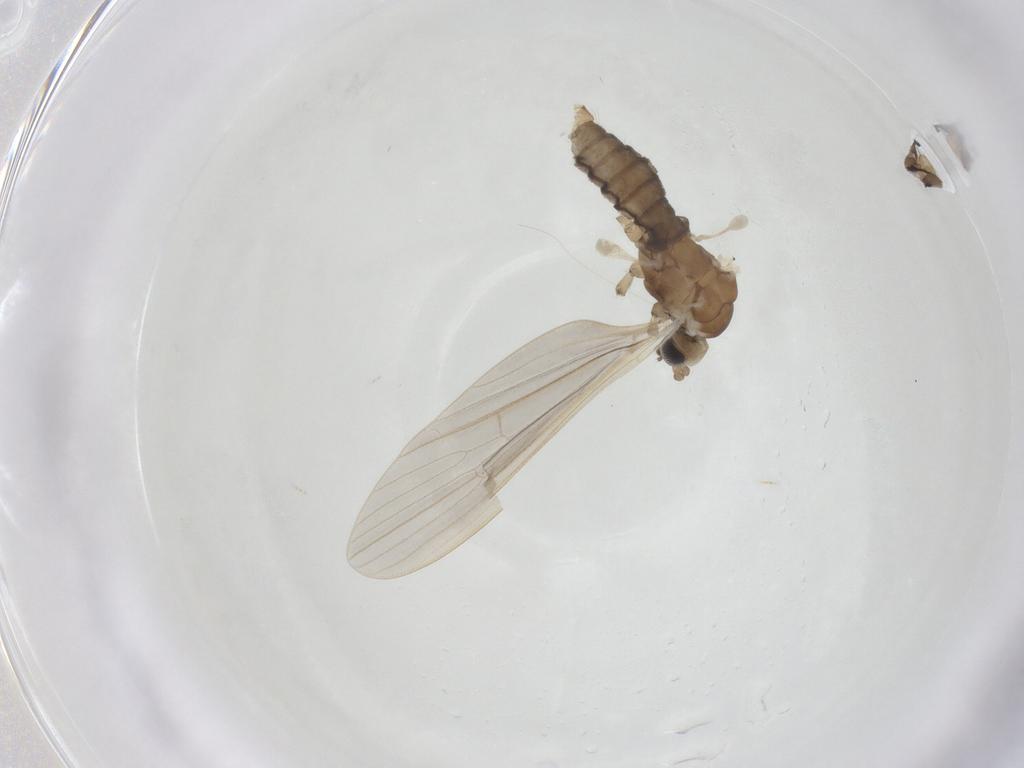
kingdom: Animalia
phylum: Arthropoda
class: Insecta
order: Diptera
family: Limoniidae
